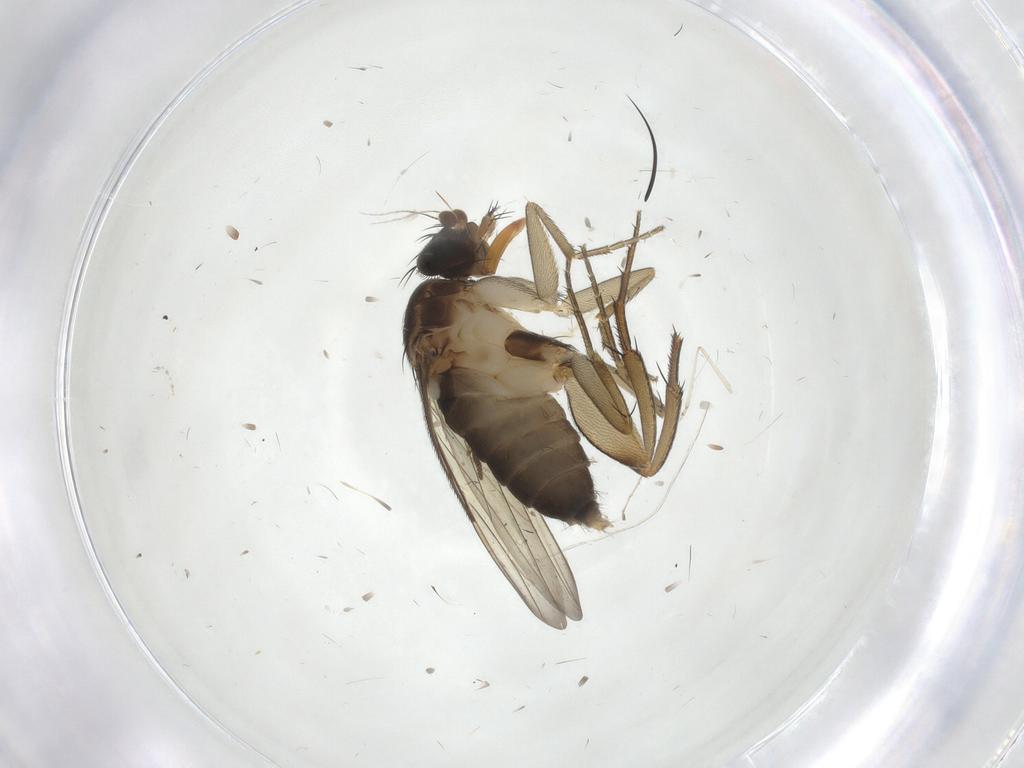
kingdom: Animalia
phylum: Arthropoda
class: Insecta
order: Diptera
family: Phoridae
